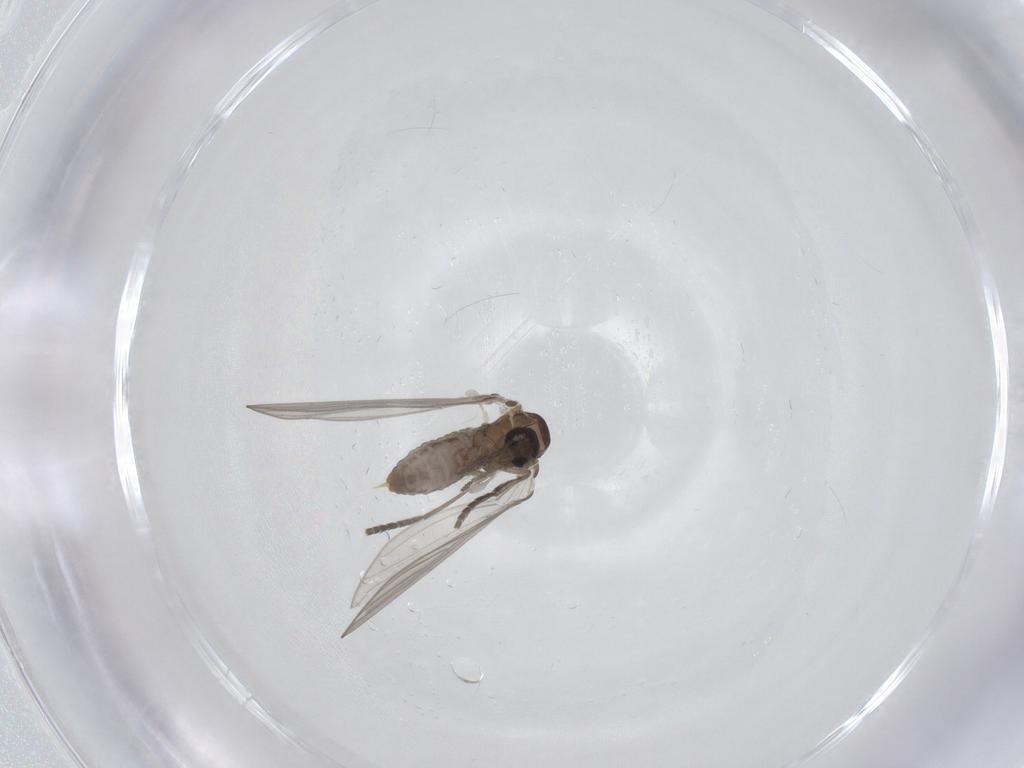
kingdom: Animalia
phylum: Arthropoda
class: Insecta
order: Diptera
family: Psychodidae
